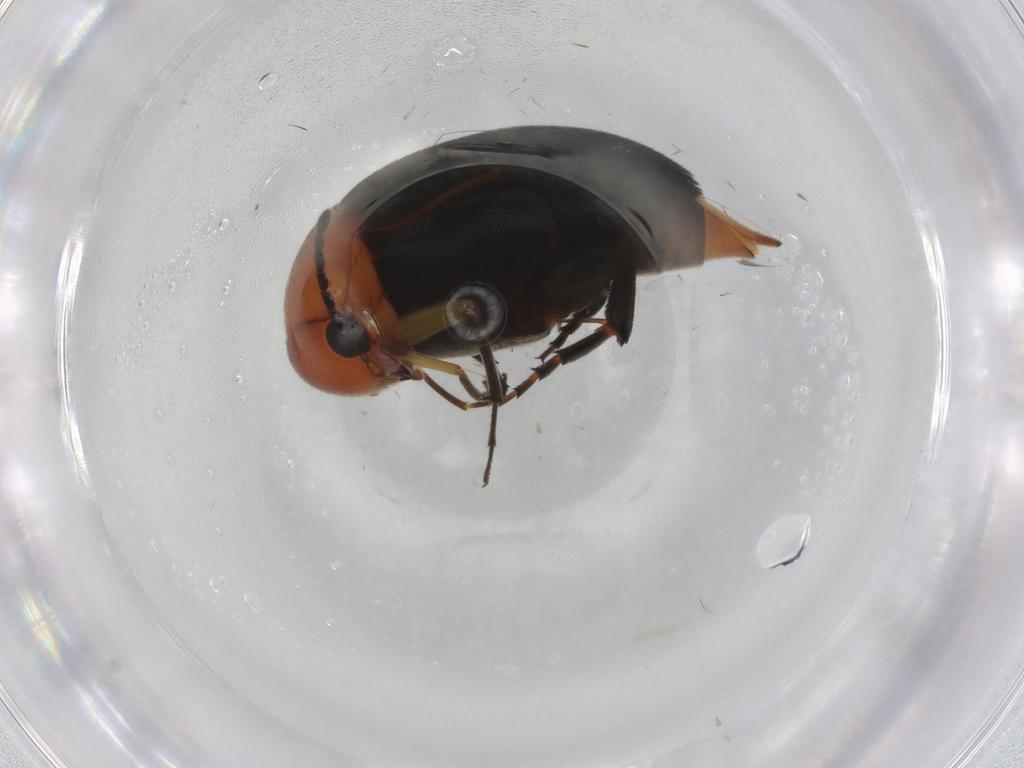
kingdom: Animalia
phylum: Arthropoda
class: Insecta
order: Coleoptera
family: Mordellidae
